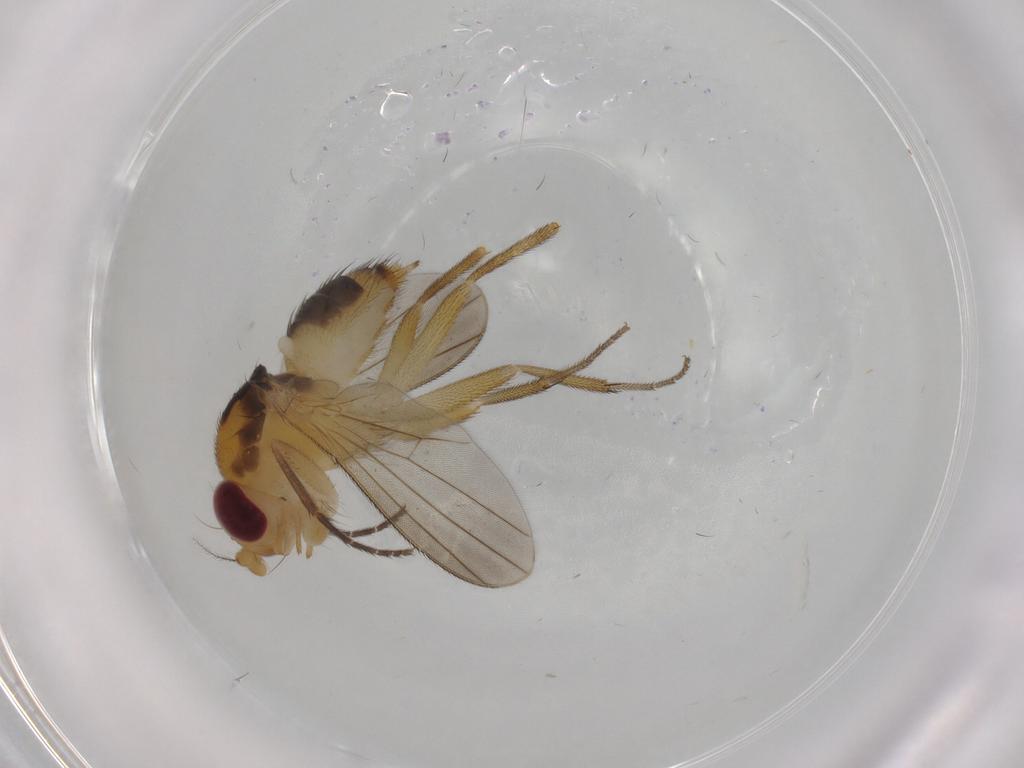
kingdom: Animalia
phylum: Arthropoda
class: Insecta
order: Diptera
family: Clusiidae
